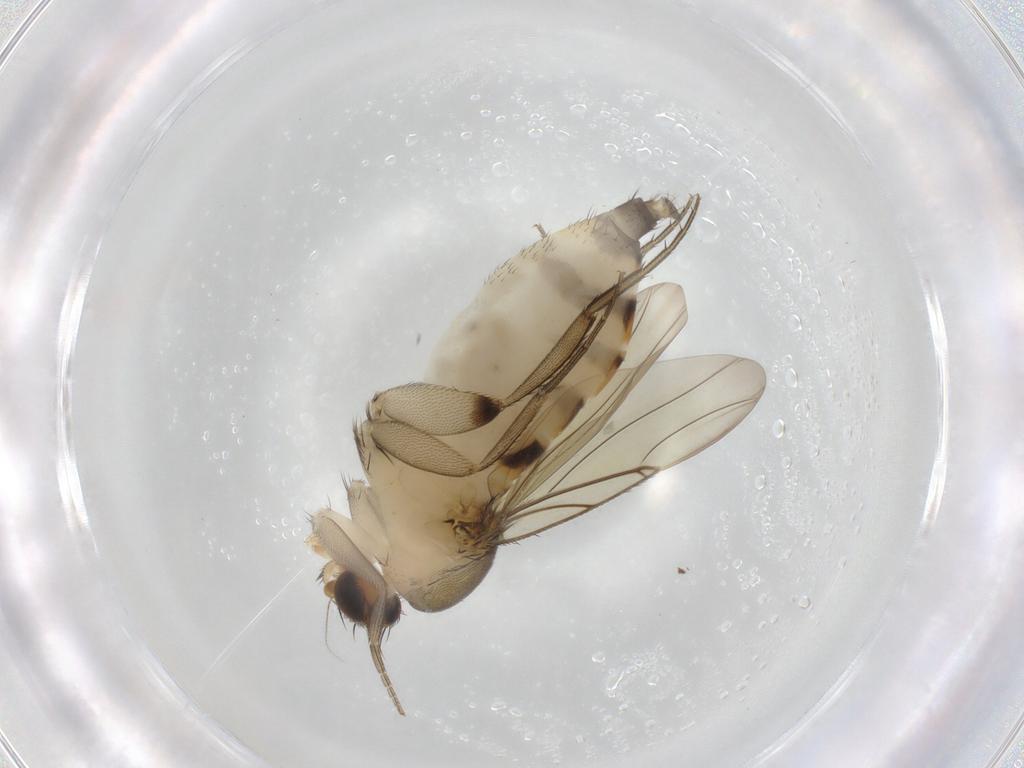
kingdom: Animalia
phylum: Arthropoda
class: Insecta
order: Diptera
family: Phoridae
